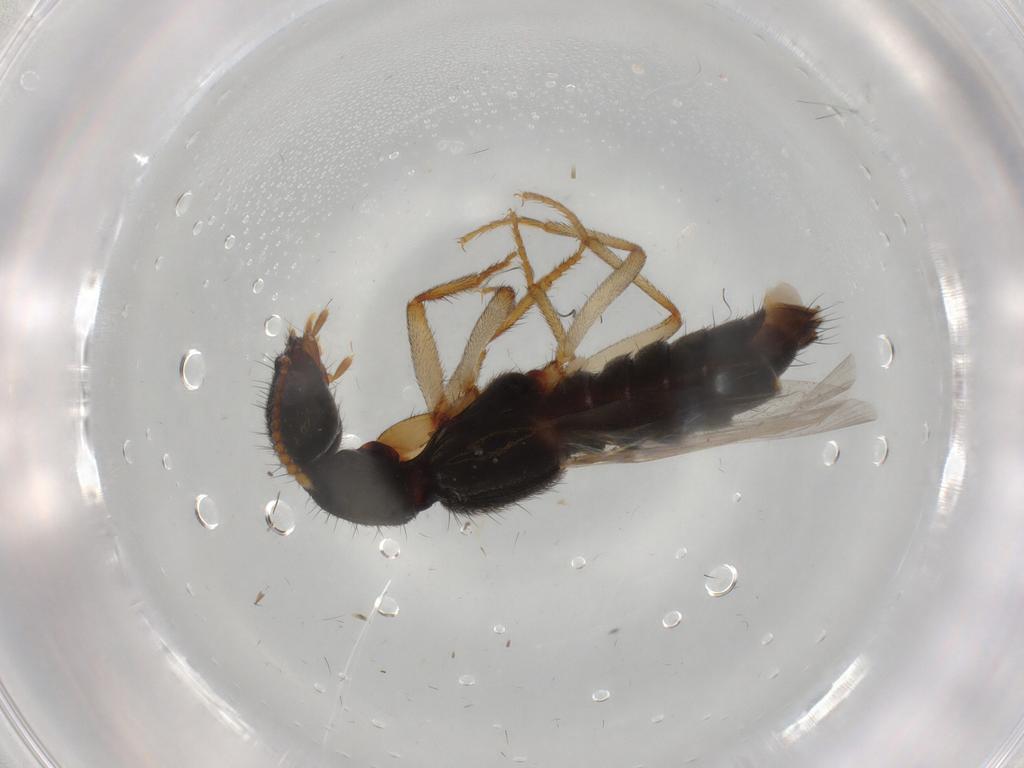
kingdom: Animalia
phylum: Arthropoda
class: Insecta
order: Coleoptera
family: Staphylinidae
